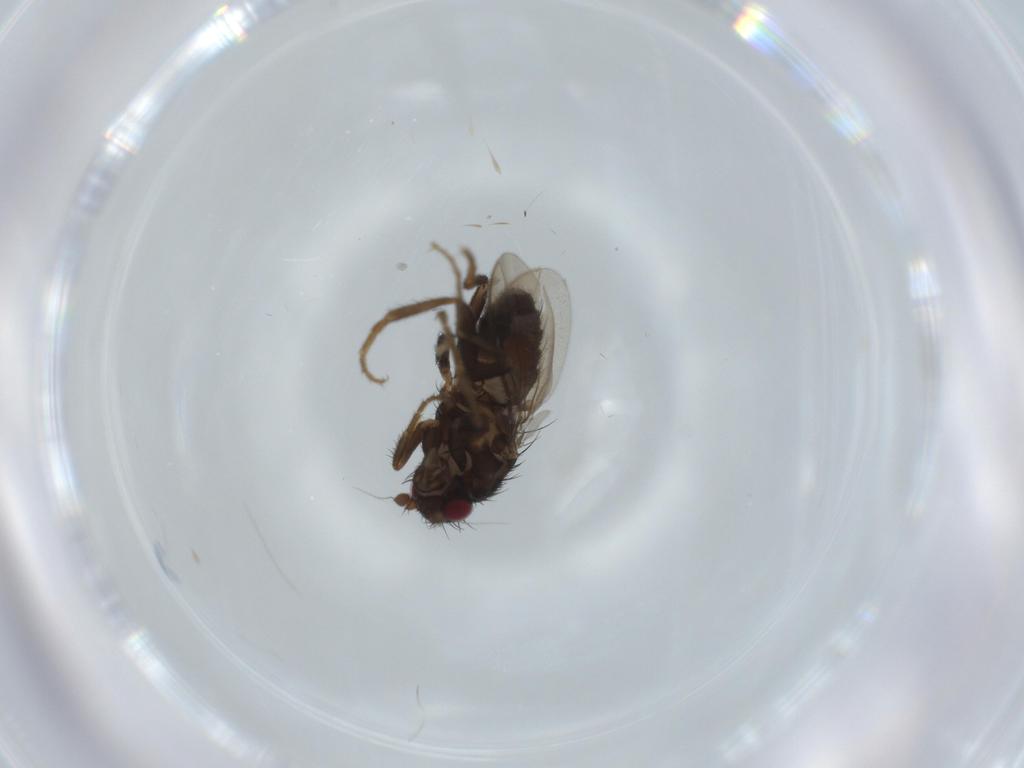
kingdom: Animalia
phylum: Arthropoda
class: Insecta
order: Diptera
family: Sphaeroceridae
